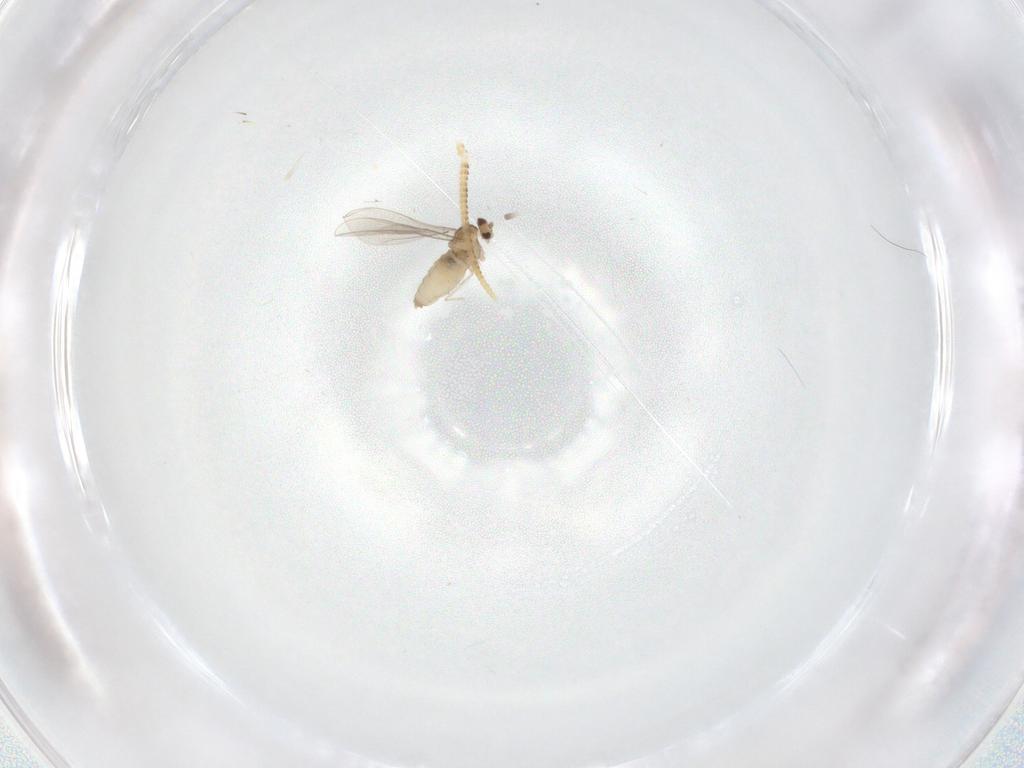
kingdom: Animalia
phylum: Arthropoda
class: Insecta
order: Diptera
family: Cecidomyiidae
